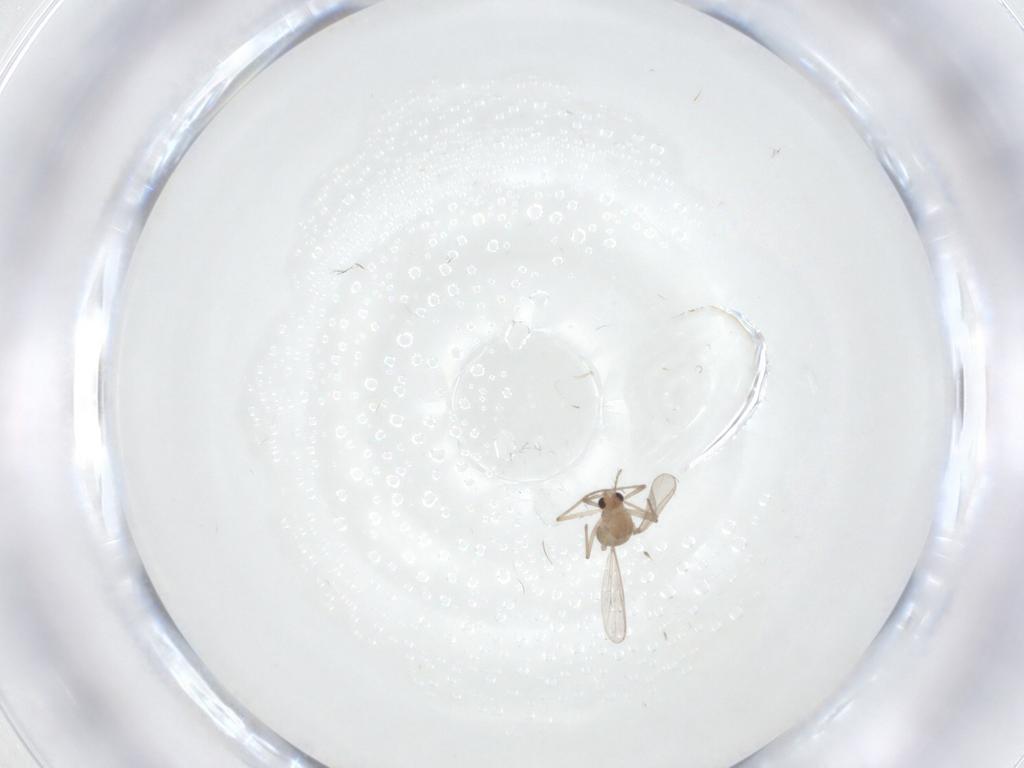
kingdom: Animalia
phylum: Arthropoda
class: Insecta
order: Diptera
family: Chironomidae
